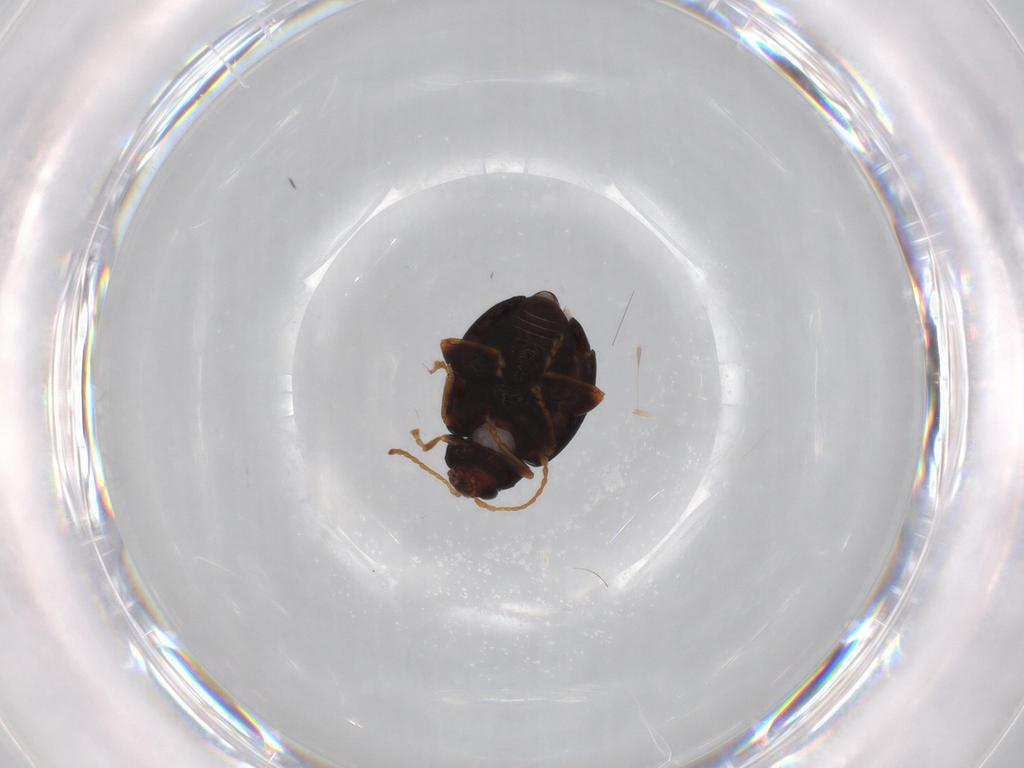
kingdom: Animalia
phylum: Arthropoda
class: Insecta
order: Coleoptera
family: Chrysomelidae
